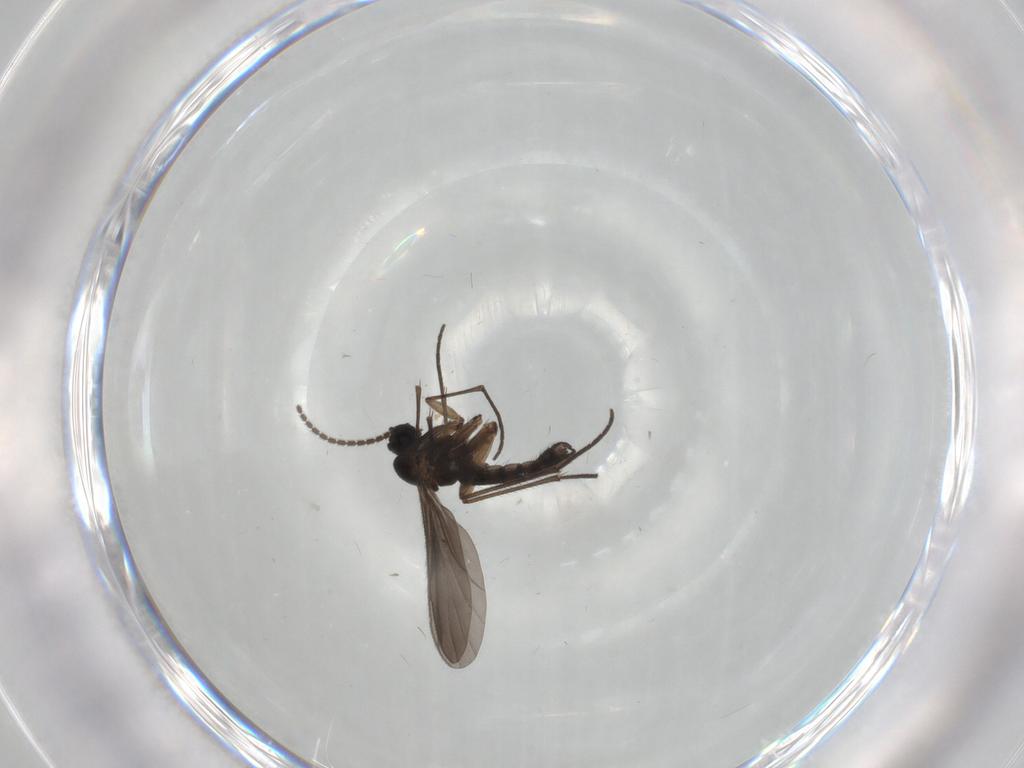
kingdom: Animalia
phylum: Arthropoda
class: Insecta
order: Diptera
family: Sciaridae
